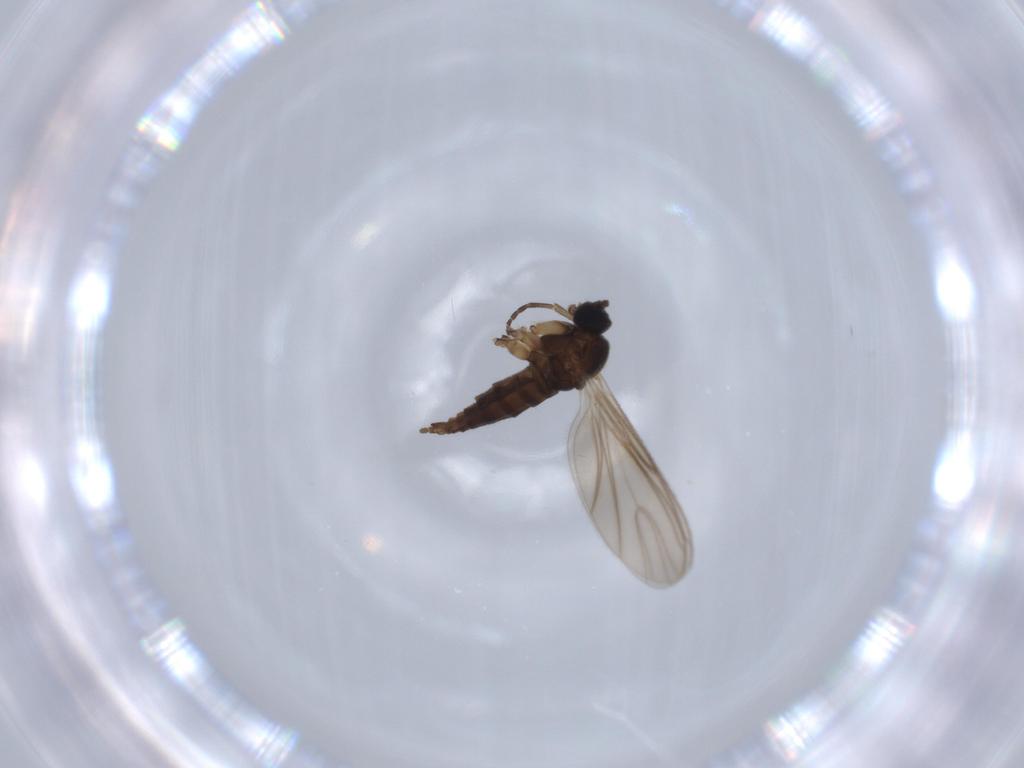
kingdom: Animalia
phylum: Arthropoda
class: Insecta
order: Diptera
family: Sciaridae
